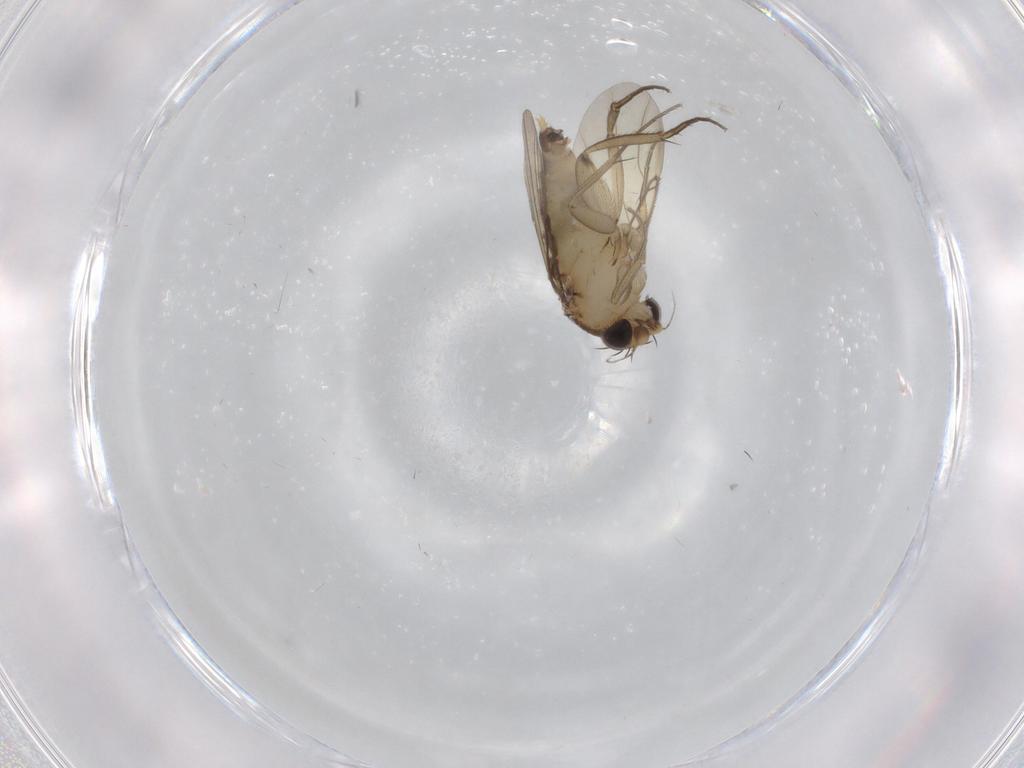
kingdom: Animalia
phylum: Arthropoda
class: Insecta
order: Diptera
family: Phoridae
